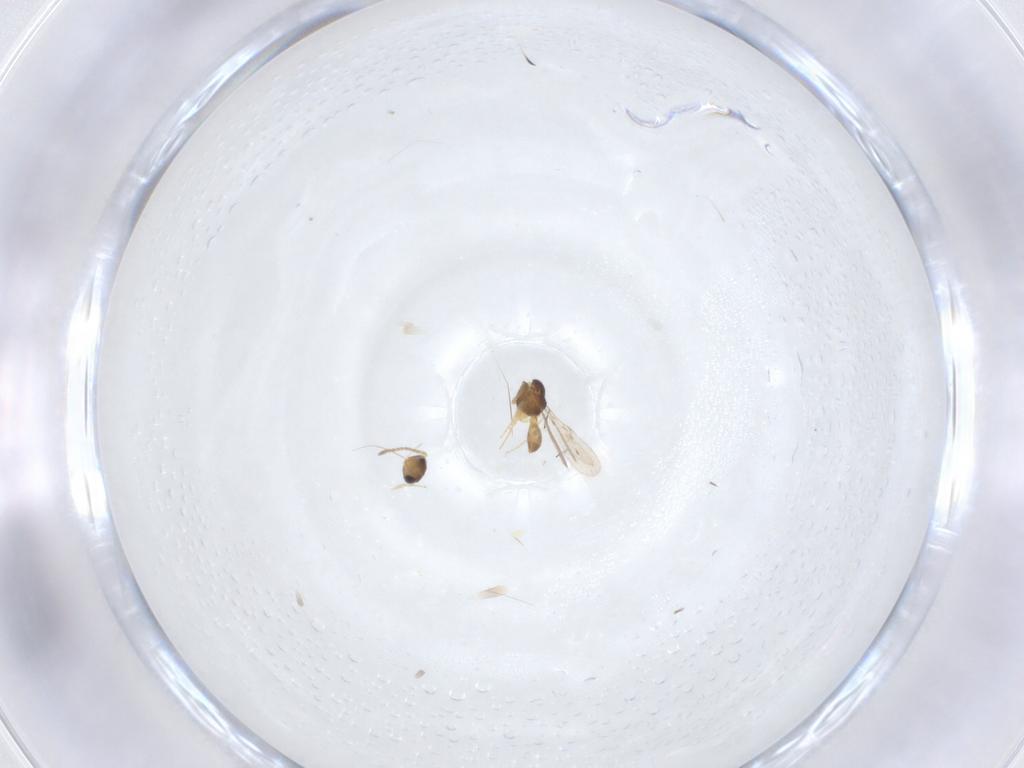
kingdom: Animalia
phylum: Arthropoda
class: Insecta
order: Hymenoptera
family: Scelionidae
